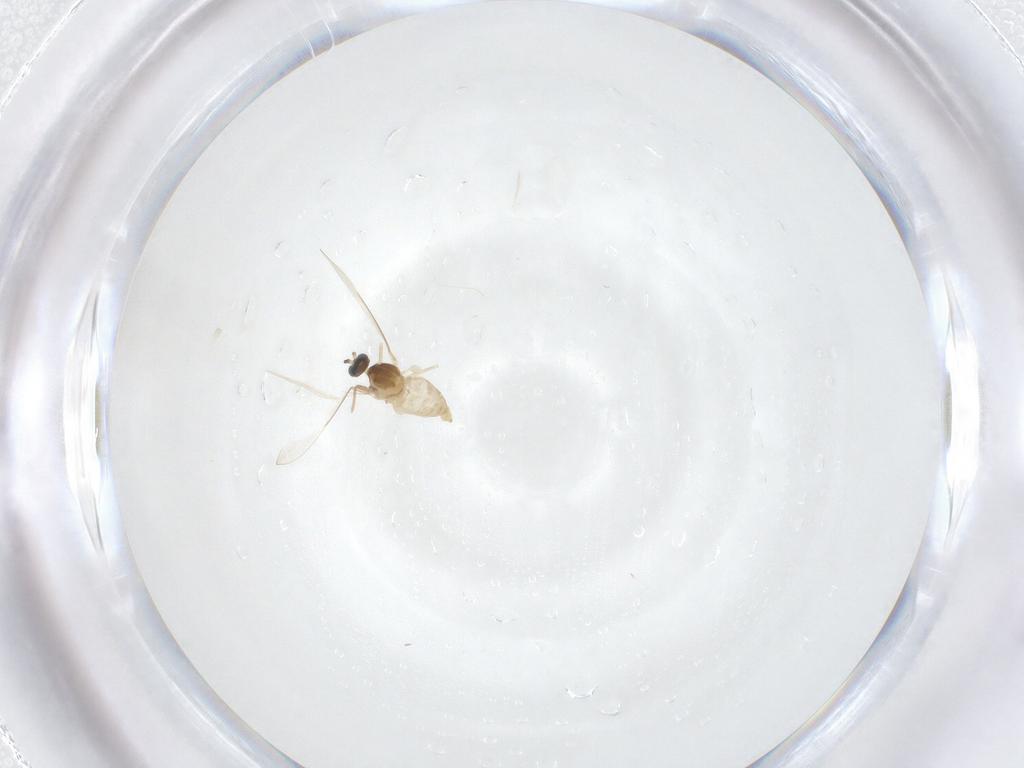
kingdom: Animalia
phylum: Arthropoda
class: Insecta
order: Diptera
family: Cecidomyiidae
